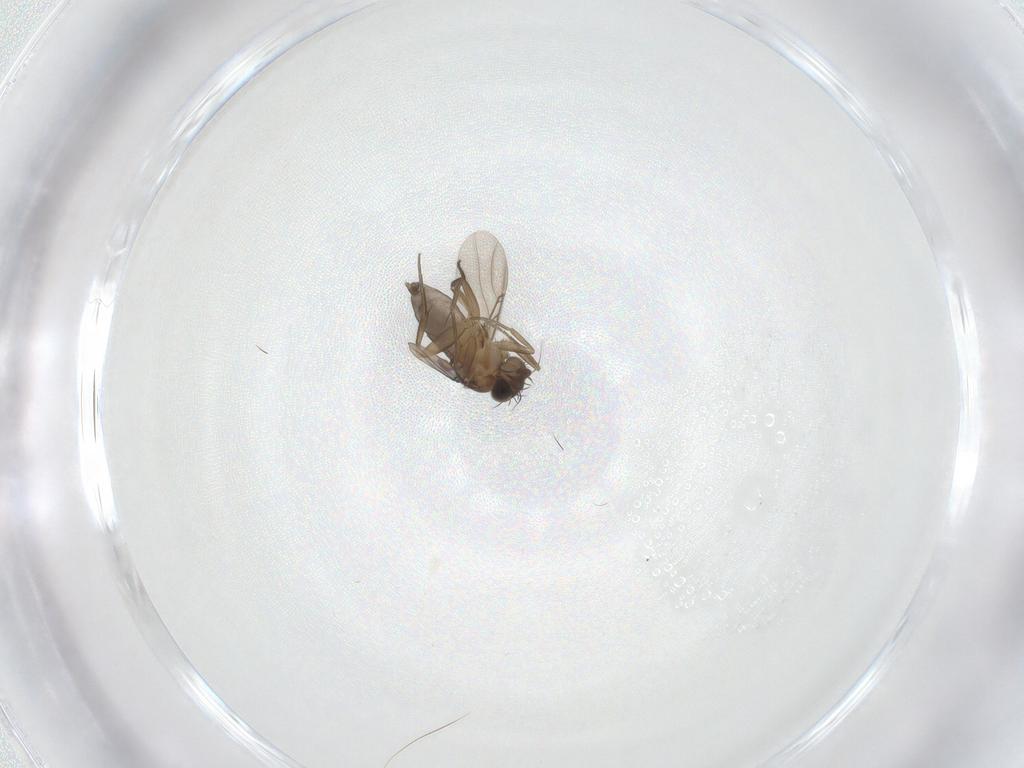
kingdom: Animalia
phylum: Arthropoda
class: Insecta
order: Diptera
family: Phoridae
